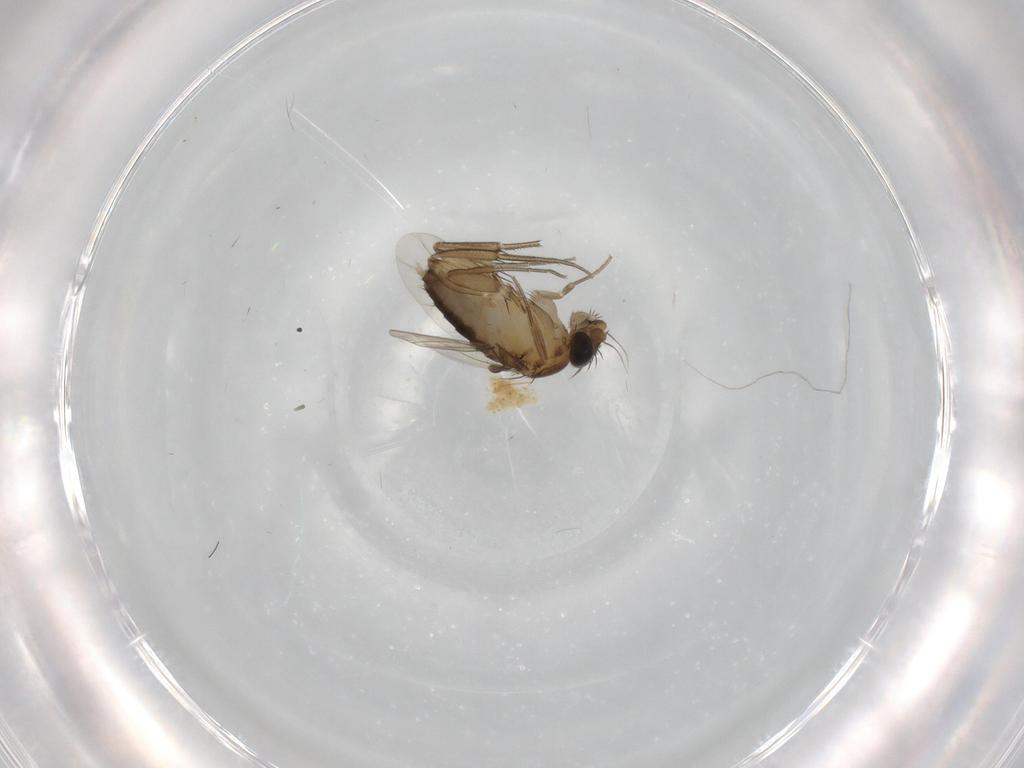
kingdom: Animalia
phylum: Arthropoda
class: Insecta
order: Diptera
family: Phoridae
